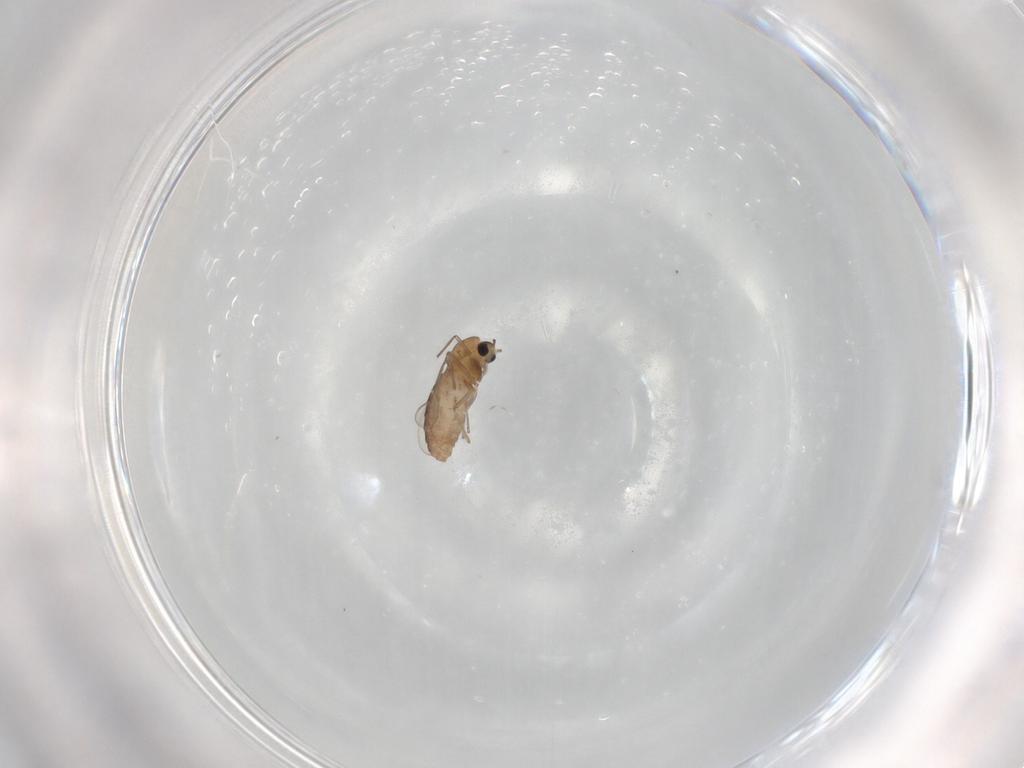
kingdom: Animalia
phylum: Arthropoda
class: Insecta
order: Diptera
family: Chironomidae
